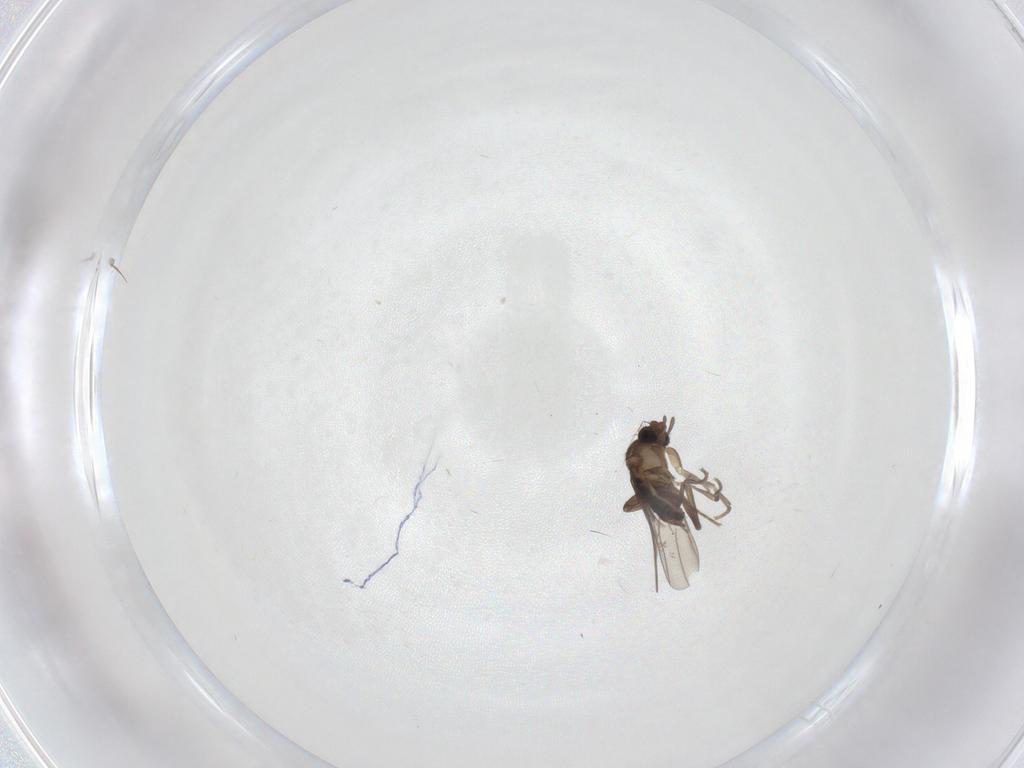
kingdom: Animalia
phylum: Arthropoda
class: Insecta
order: Diptera
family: Phoridae
